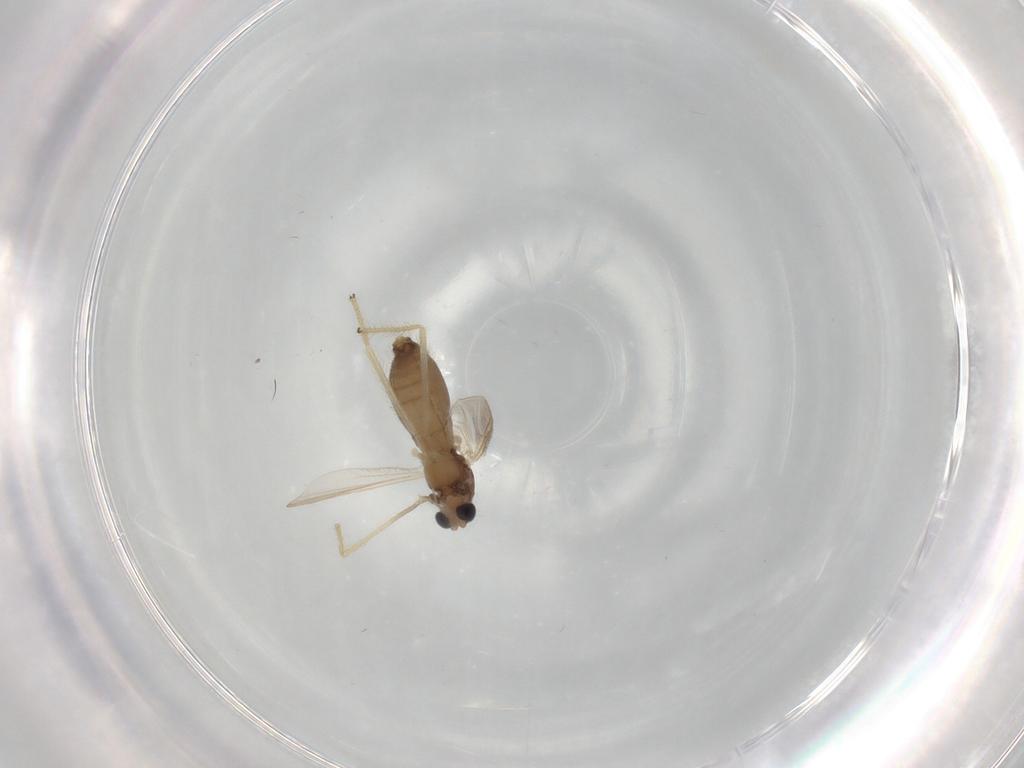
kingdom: Animalia
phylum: Arthropoda
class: Insecta
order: Diptera
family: Chironomidae
